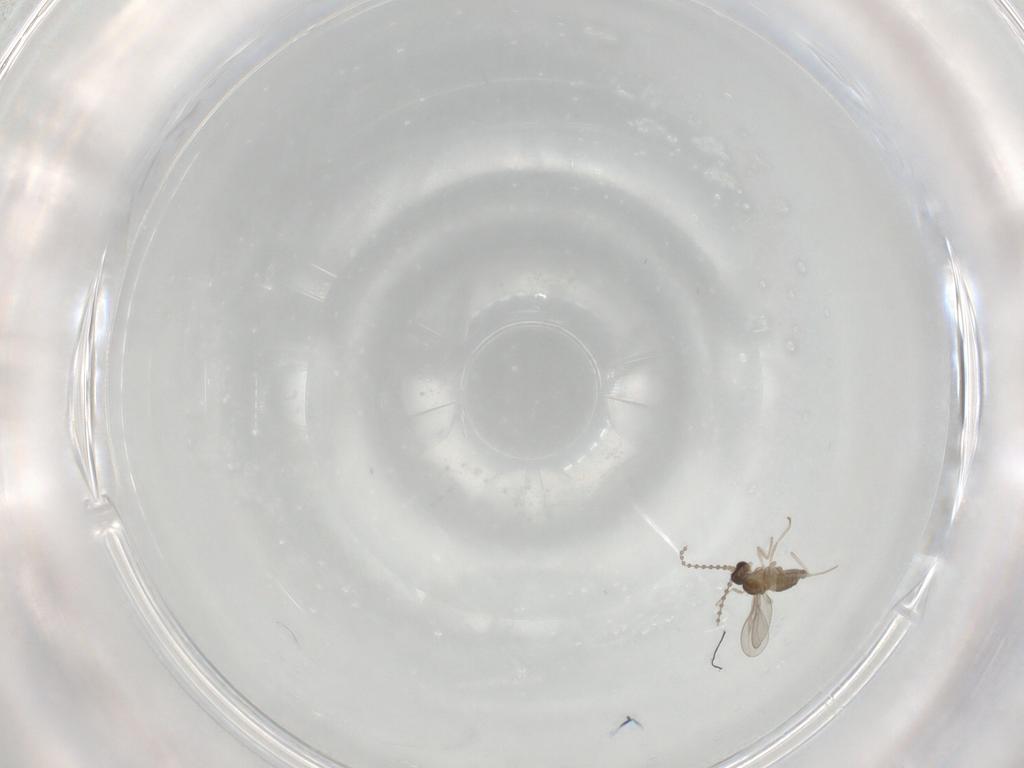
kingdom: Animalia
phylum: Arthropoda
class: Insecta
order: Diptera
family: Cecidomyiidae
